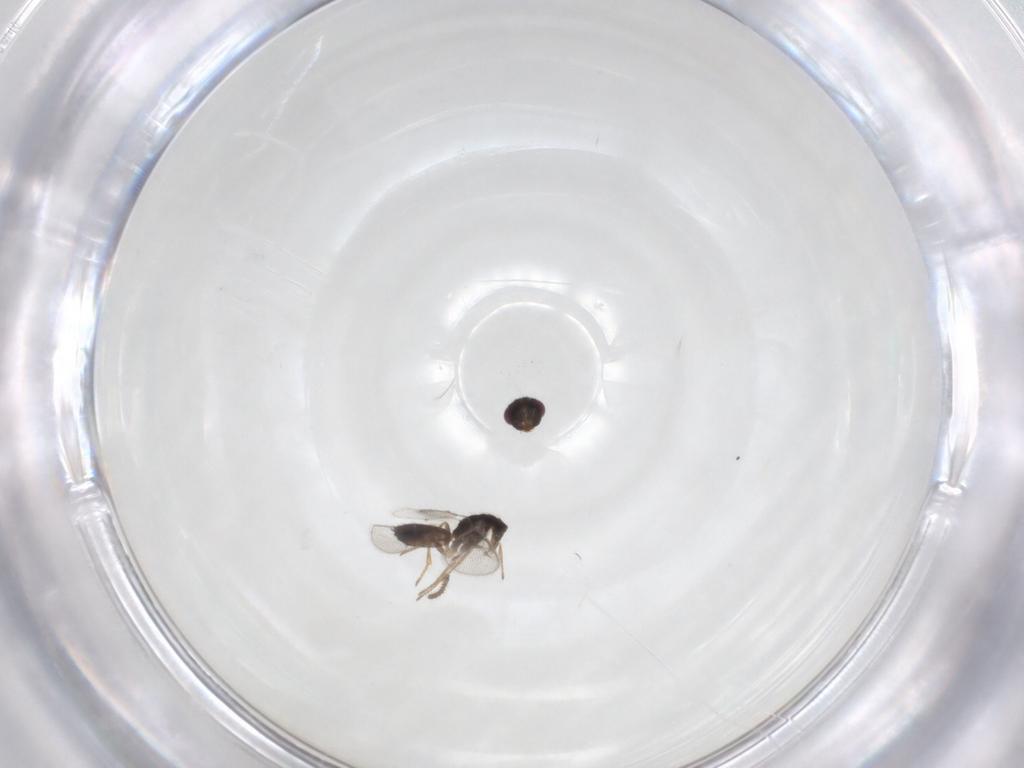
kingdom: Animalia
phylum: Arthropoda
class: Insecta
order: Hymenoptera
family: Pirenidae
